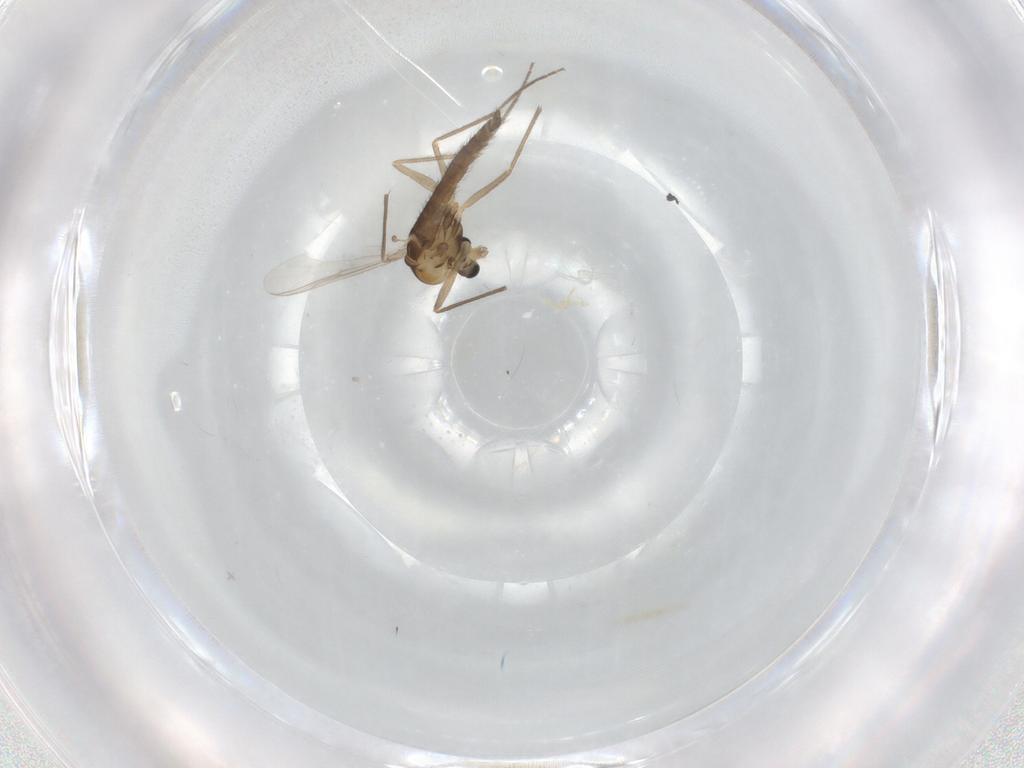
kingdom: Animalia
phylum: Arthropoda
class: Insecta
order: Diptera
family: Chironomidae
